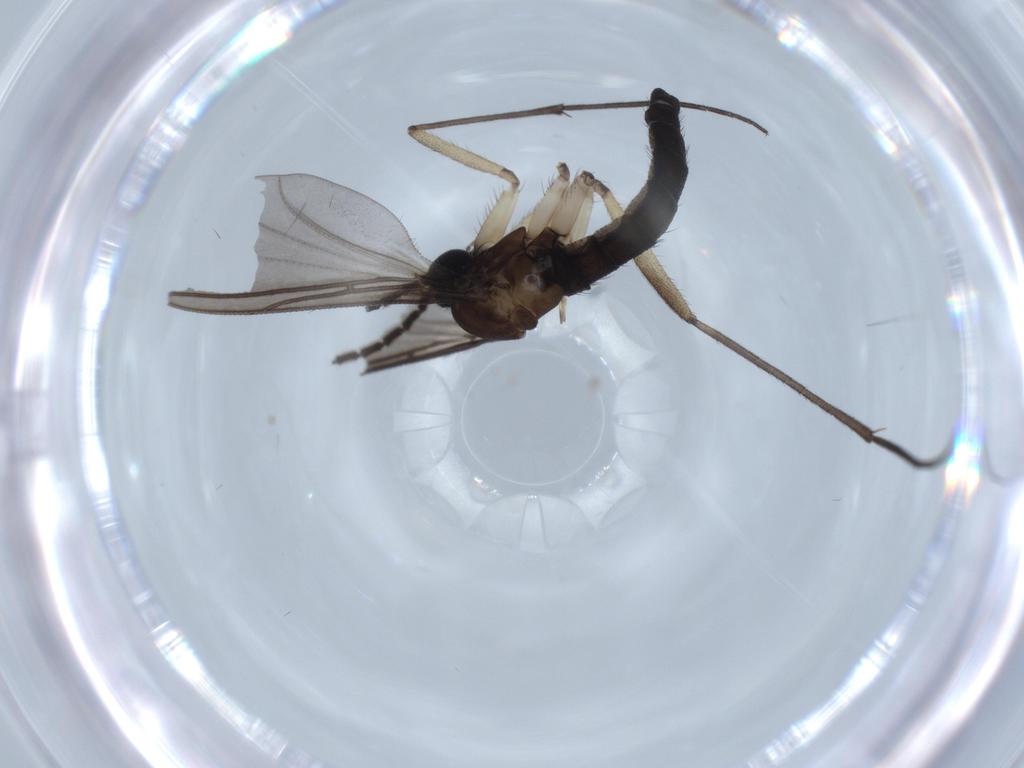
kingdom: Animalia
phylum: Arthropoda
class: Insecta
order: Diptera
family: Sciaridae
